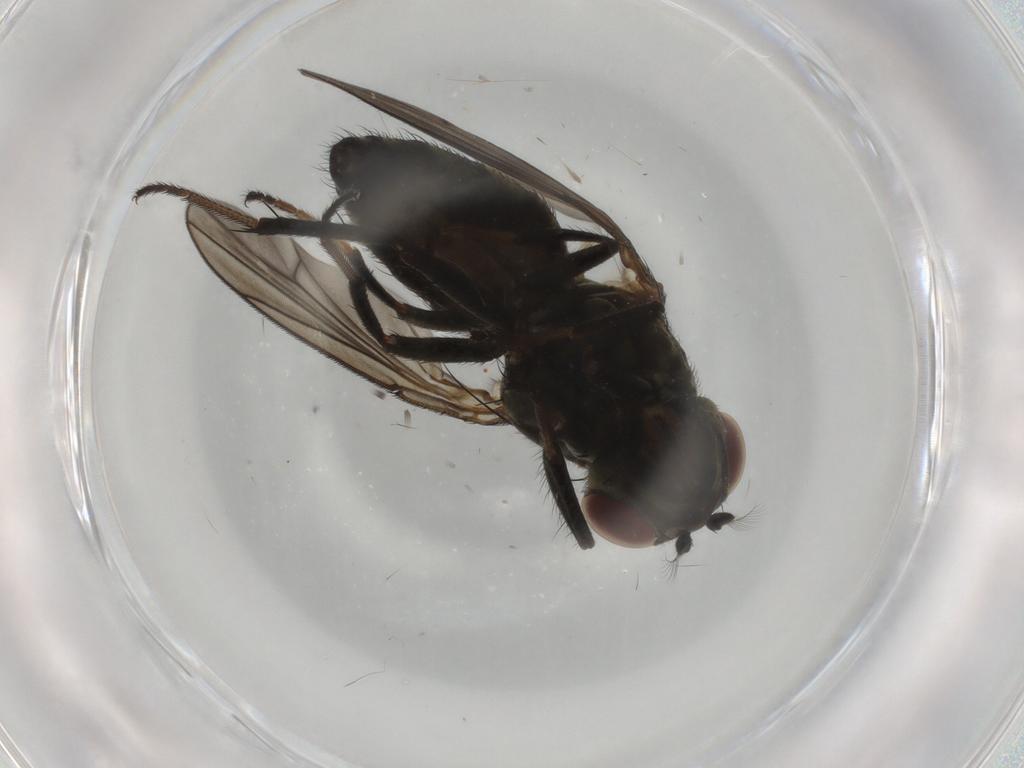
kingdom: Animalia
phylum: Arthropoda
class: Insecta
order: Diptera
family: Ephydridae
